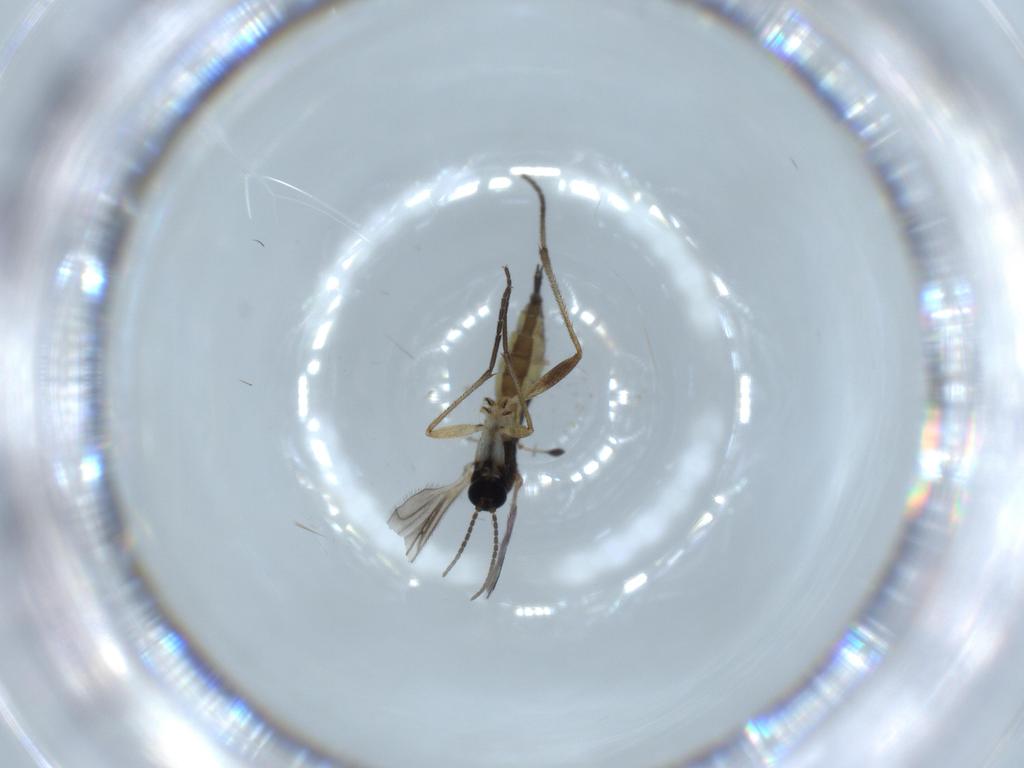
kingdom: Animalia
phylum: Arthropoda
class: Insecta
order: Diptera
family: Sciaridae
